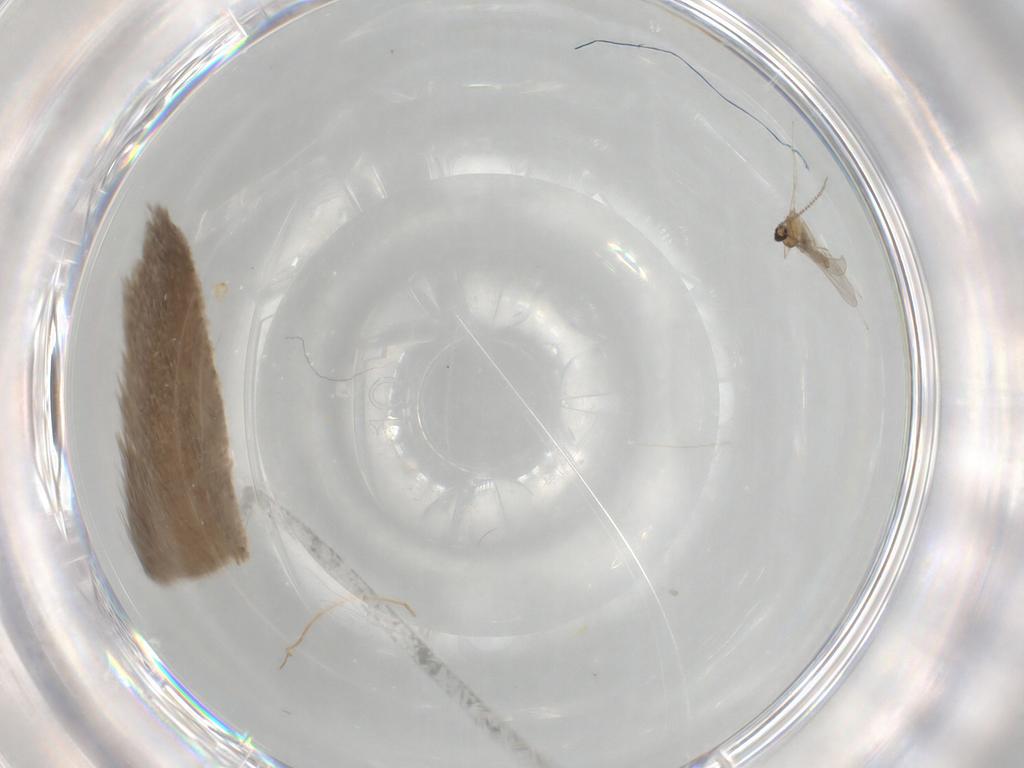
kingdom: Animalia
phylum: Arthropoda
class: Insecta
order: Diptera
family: Cecidomyiidae
